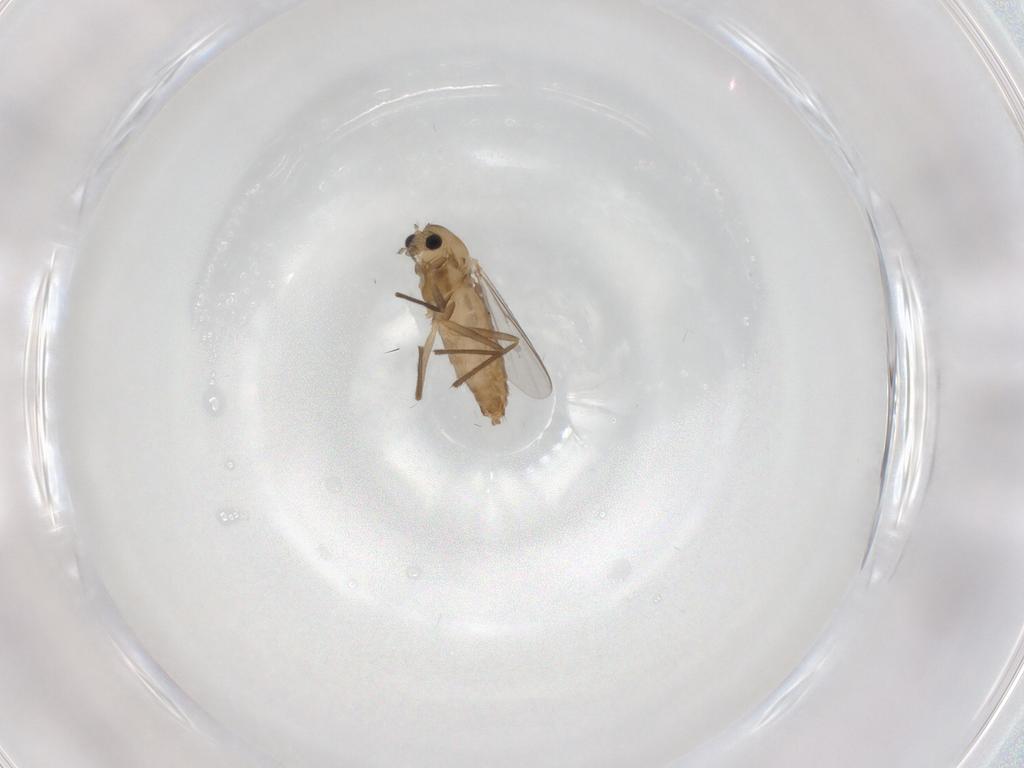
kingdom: Animalia
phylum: Arthropoda
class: Insecta
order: Diptera
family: Chironomidae
